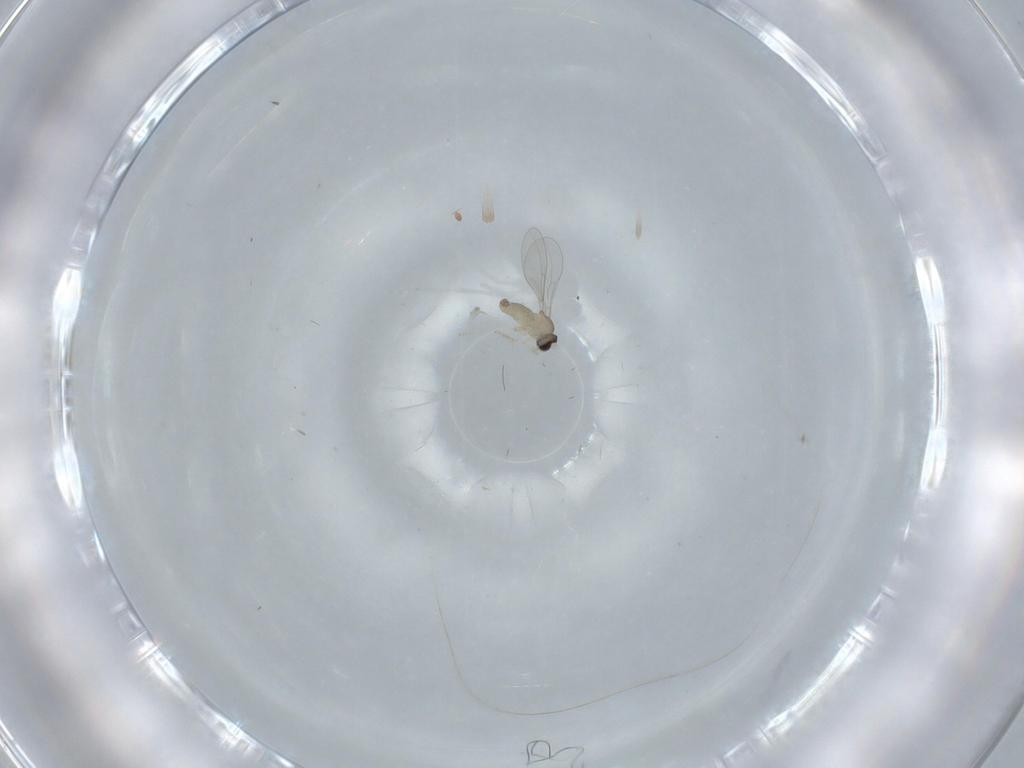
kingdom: Animalia
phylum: Arthropoda
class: Insecta
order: Diptera
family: Cecidomyiidae
